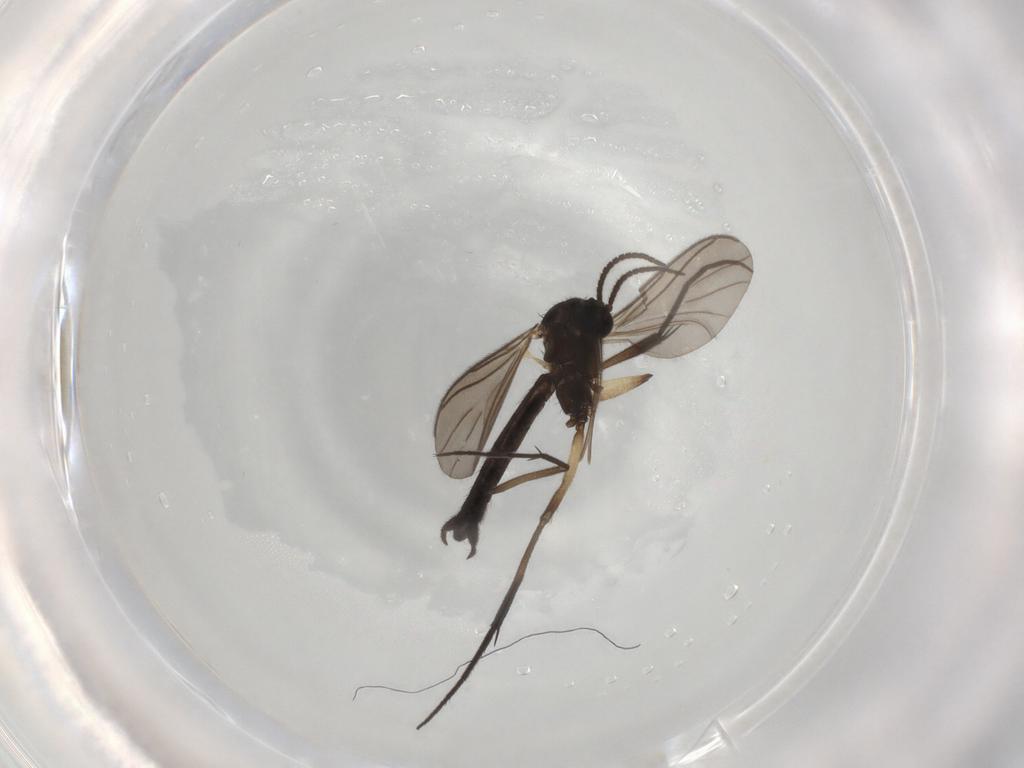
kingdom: Animalia
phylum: Arthropoda
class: Insecta
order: Diptera
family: Keroplatidae
